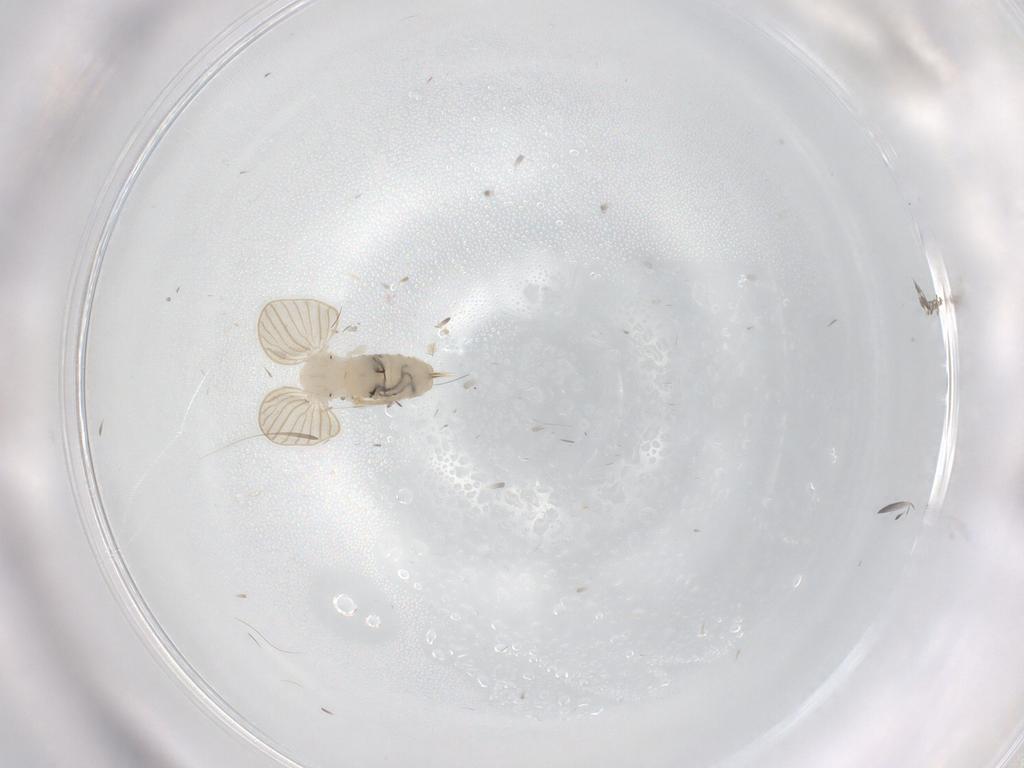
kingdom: Animalia
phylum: Arthropoda
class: Insecta
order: Diptera
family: Psychodidae
